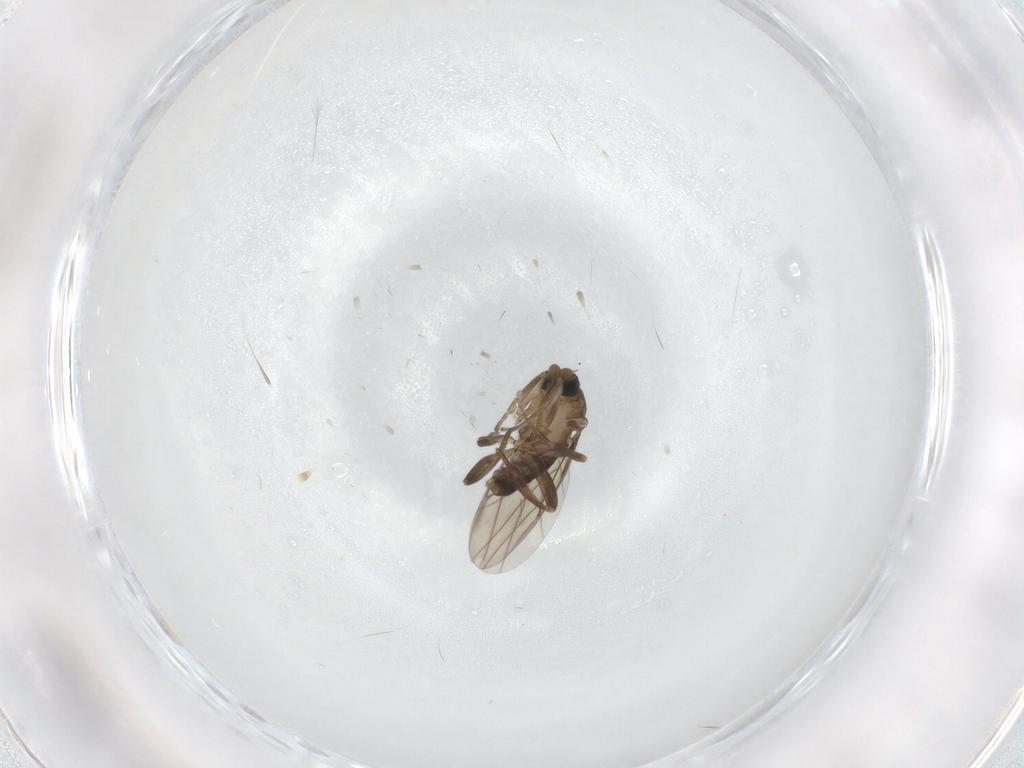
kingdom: Animalia
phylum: Arthropoda
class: Insecta
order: Diptera
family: Phoridae
